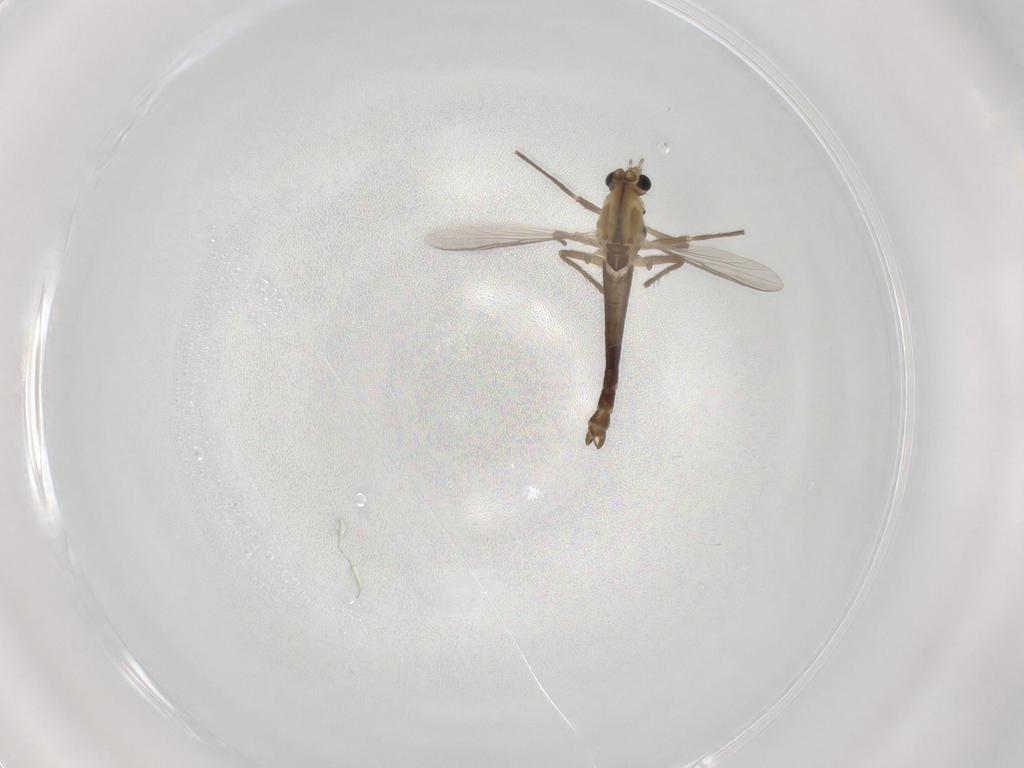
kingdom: Animalia
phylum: Arthropoda
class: Insecta
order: Diptera
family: Chironomidae
